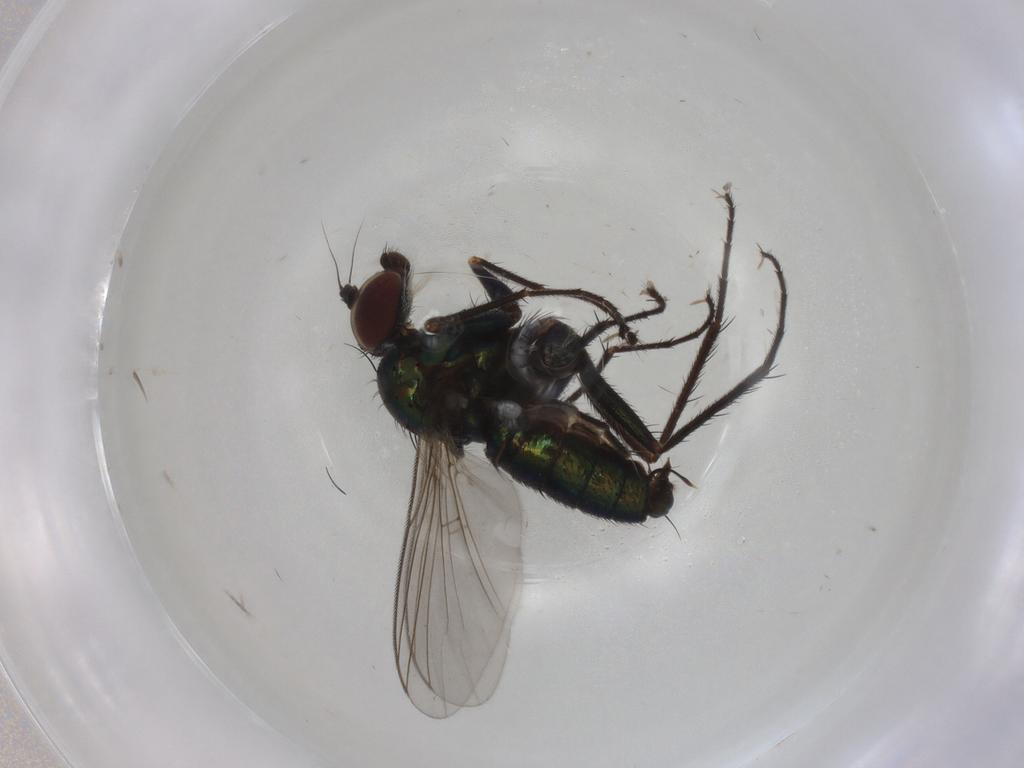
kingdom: Animalia
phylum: Arthropoda
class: Insecta
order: Diptera
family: Dolichopodidae
